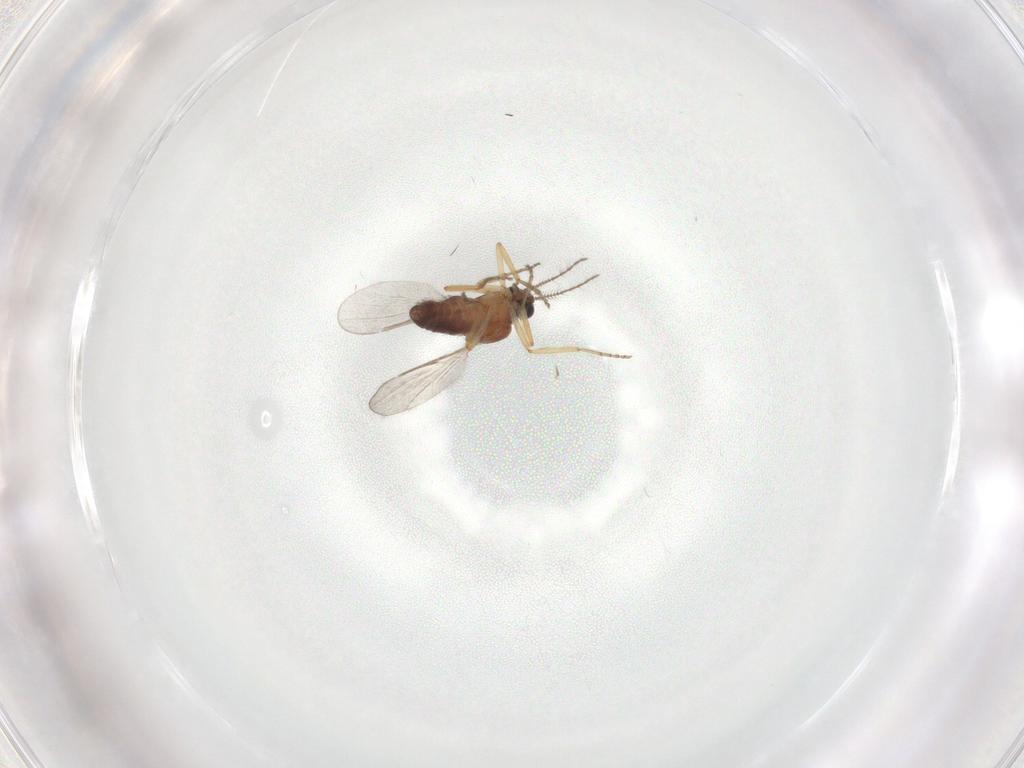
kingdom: Animalia
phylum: Arthropoda
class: Insecta
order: Diptera
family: Ceratopogonidae
